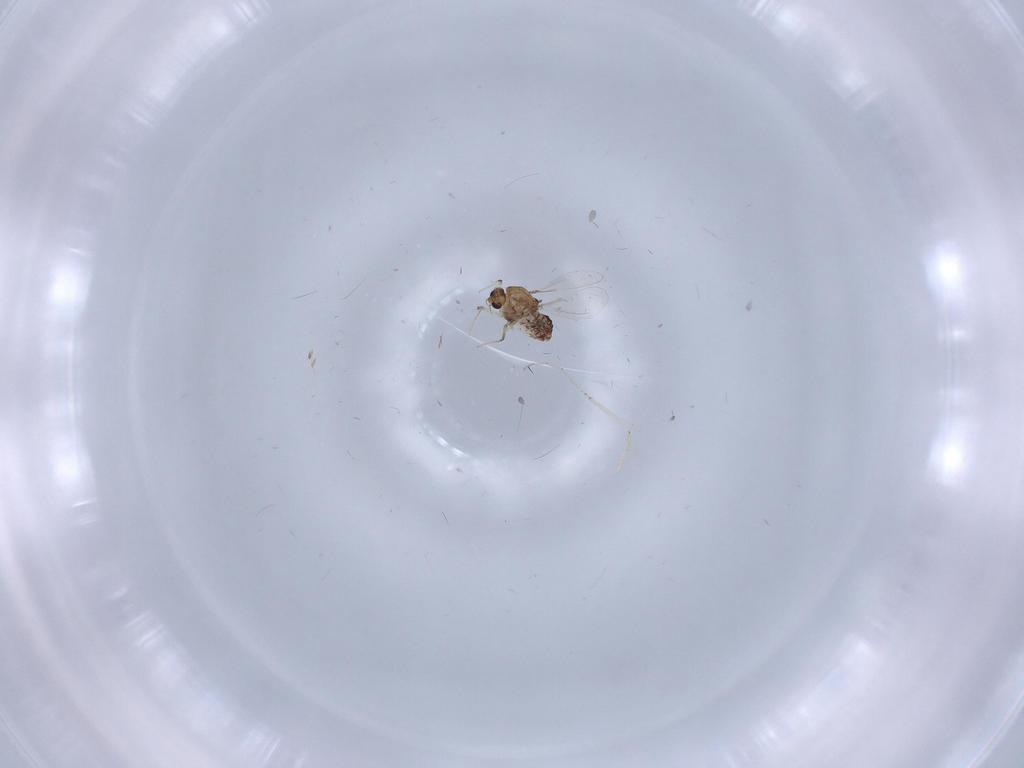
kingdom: Animalia
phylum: Arthropoda
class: Insecta
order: Diptera
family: Chironomidae
